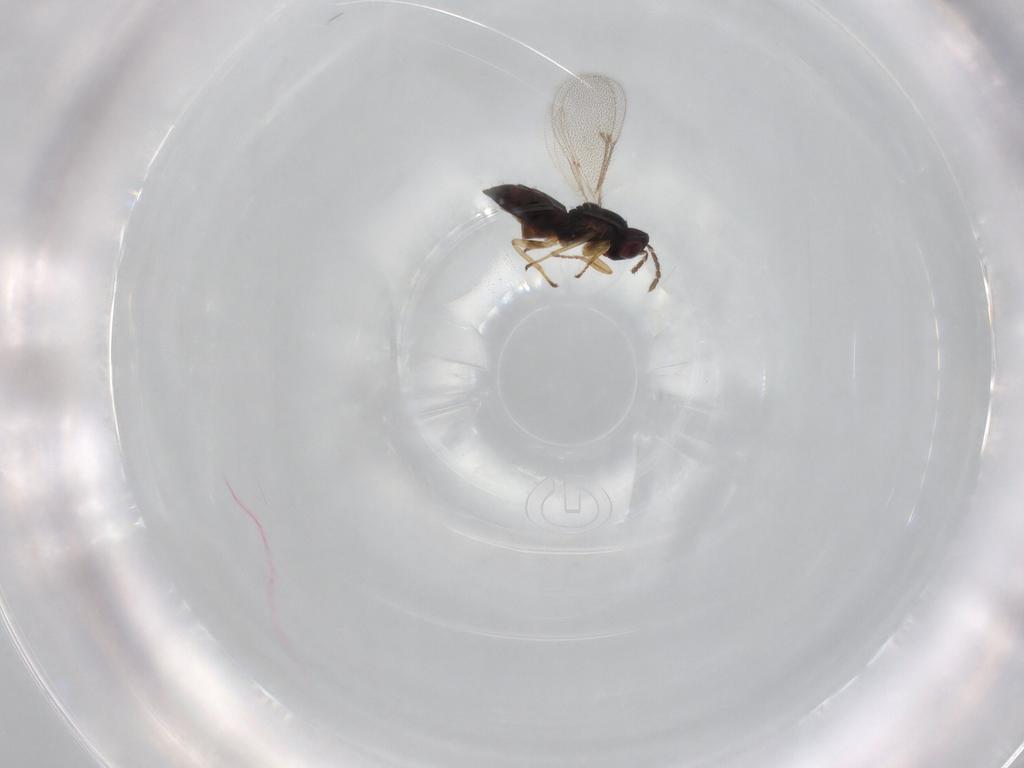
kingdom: Animalia
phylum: Arthropoda
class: Insecta
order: Hymenoptera
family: Eulophidae
